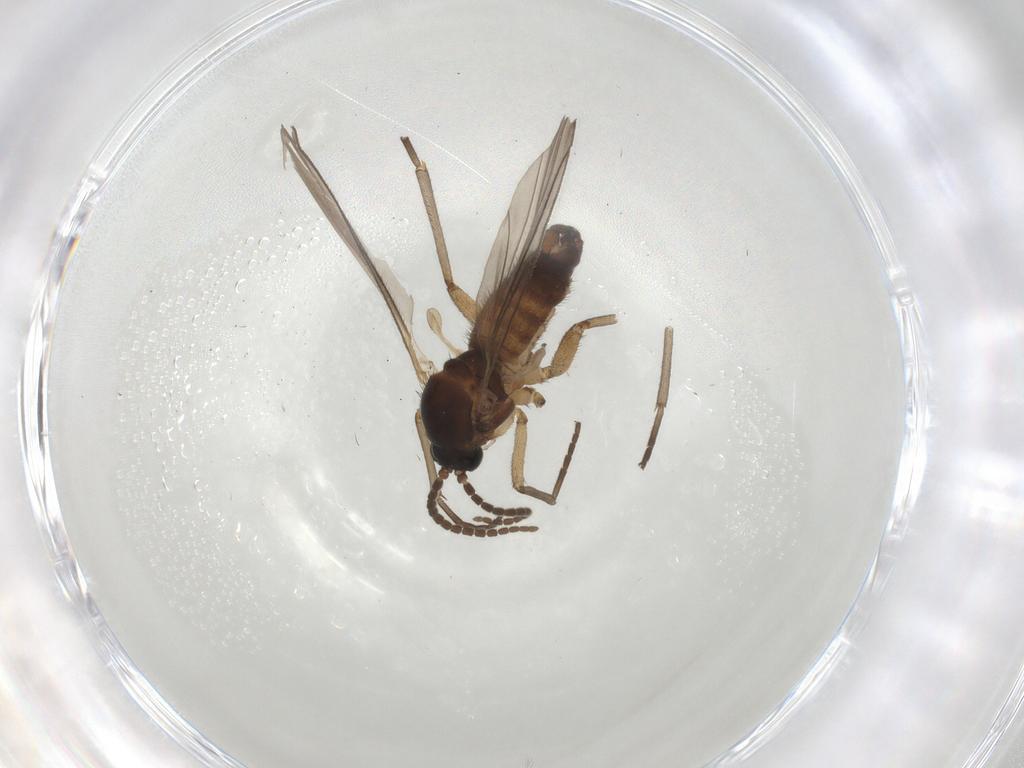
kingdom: Animalia
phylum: Arthropoda
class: Insecta
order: Diptera
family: Sciaridae
